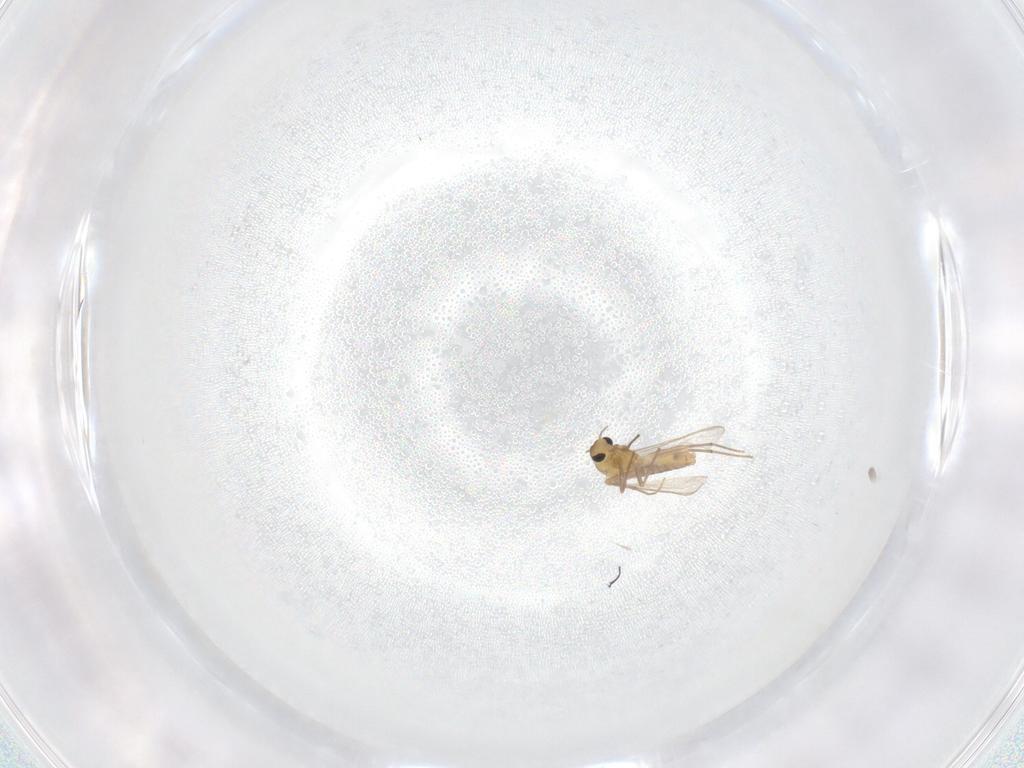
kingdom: Animalia
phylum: Arthropoda
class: Insecta
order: Diptera
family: Chironomidae
